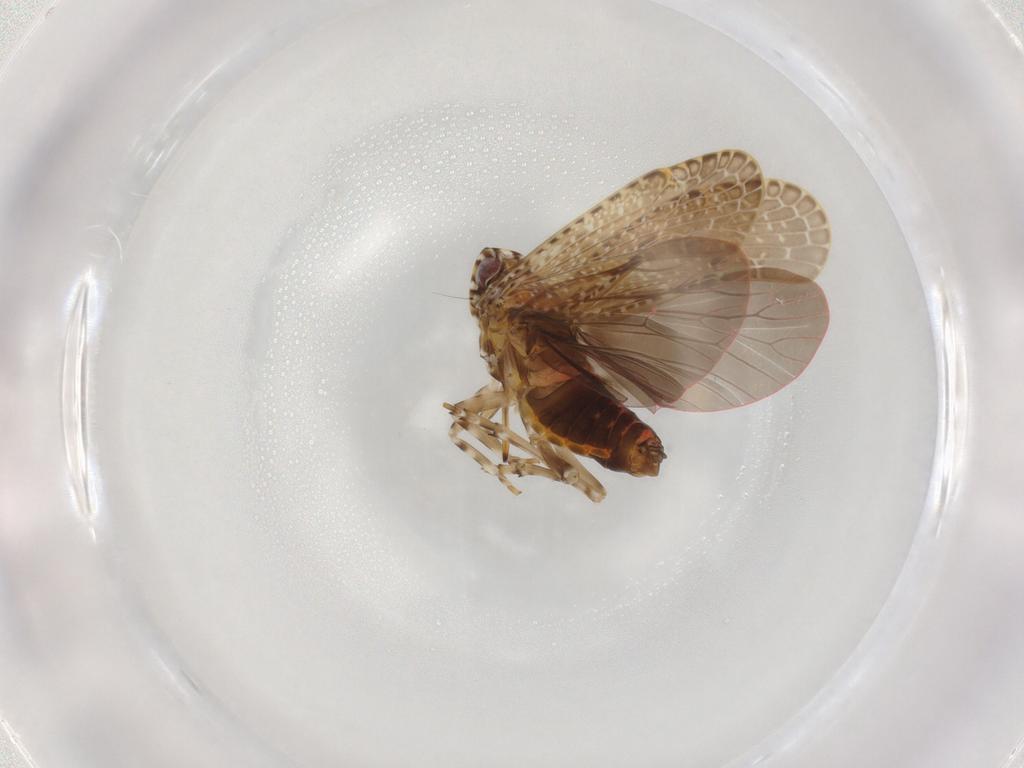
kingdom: Animalia
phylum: Arthropoda
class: Insecta
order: Hemiptera
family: Achilidae
